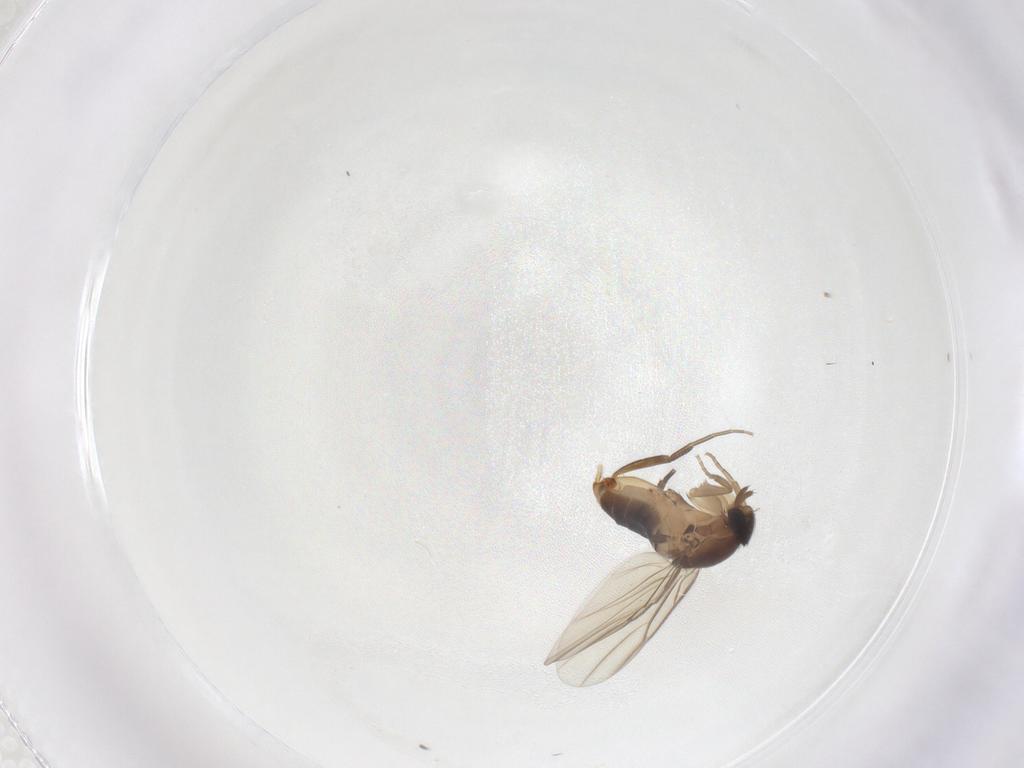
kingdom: Animalia
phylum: Arthropoda
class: Insecta
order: Diptera
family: Phoridae
